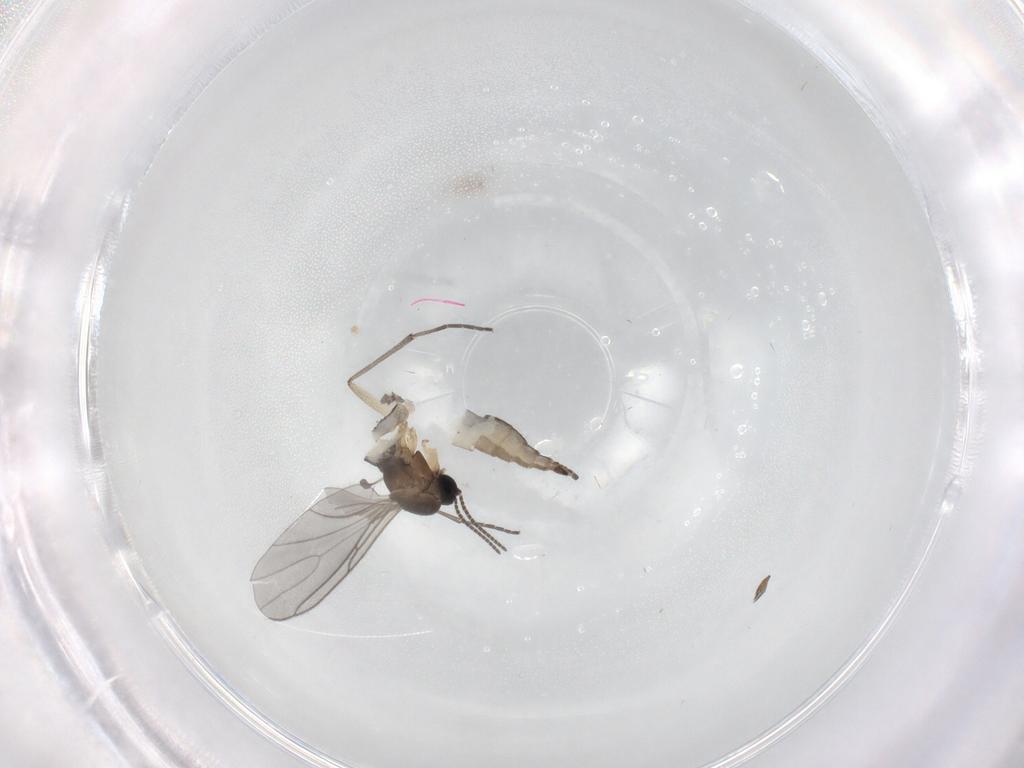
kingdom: Animalia
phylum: Arthropoda
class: Insecta
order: Diptera
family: Sciaridae
